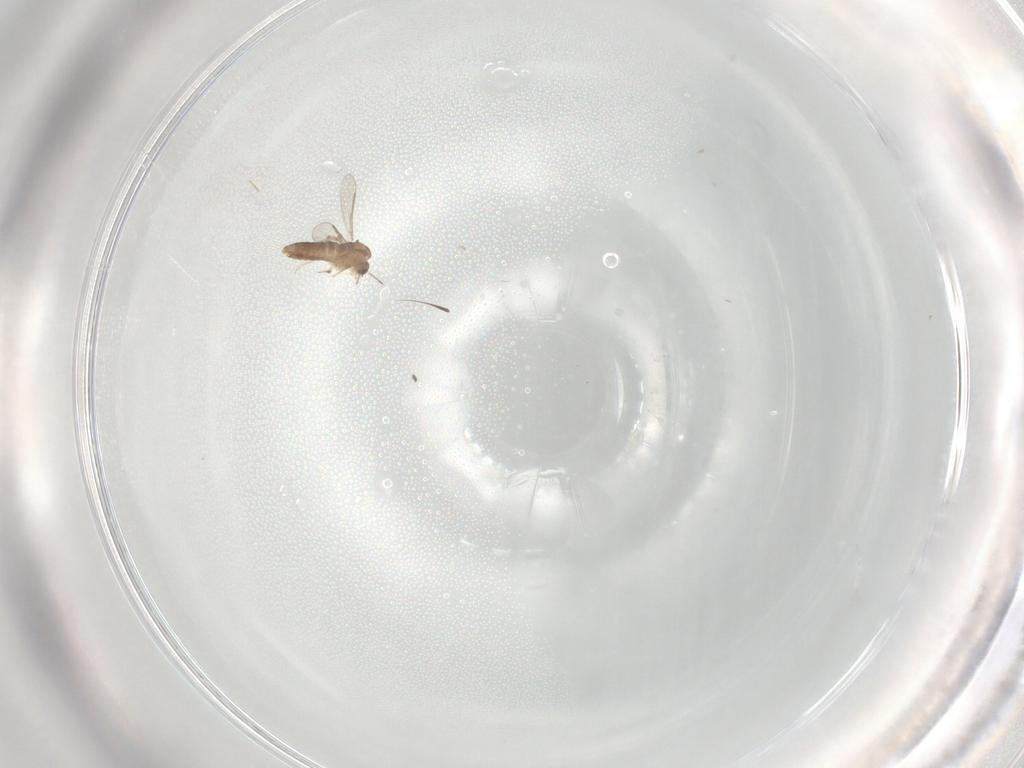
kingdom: Animalia
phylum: Arthropoda
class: Insecta
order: Diptera
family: Chironomidae
